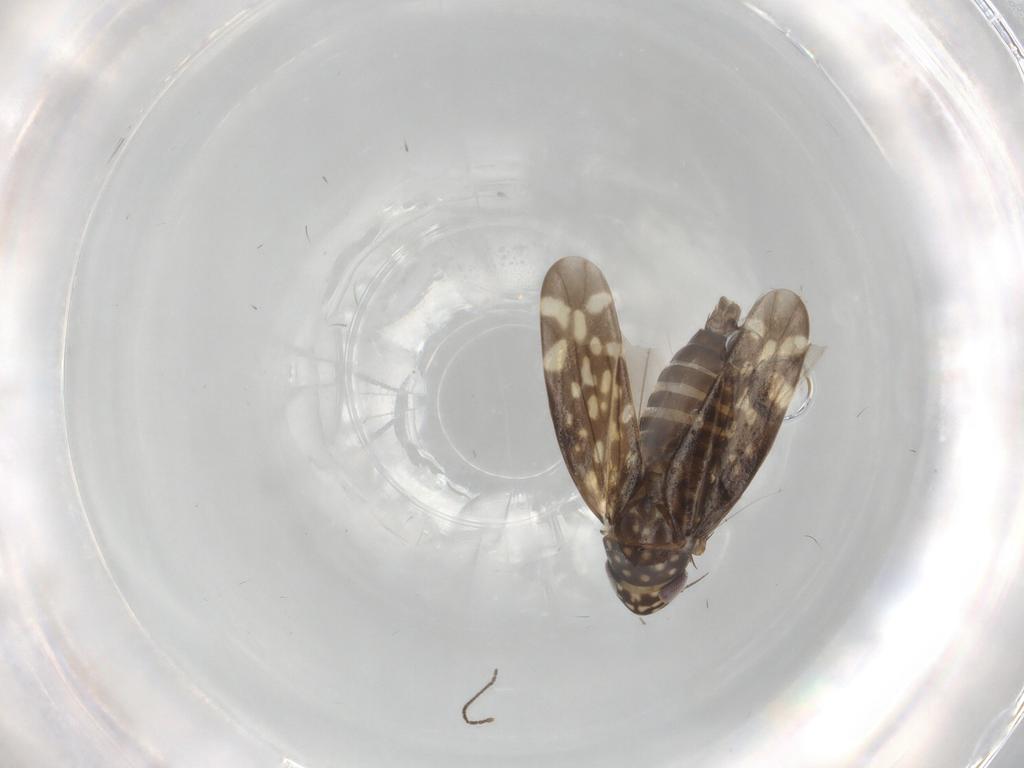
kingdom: Animalia
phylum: Arthropoda
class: Insecta
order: Hemiptera
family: Cicadellidae
